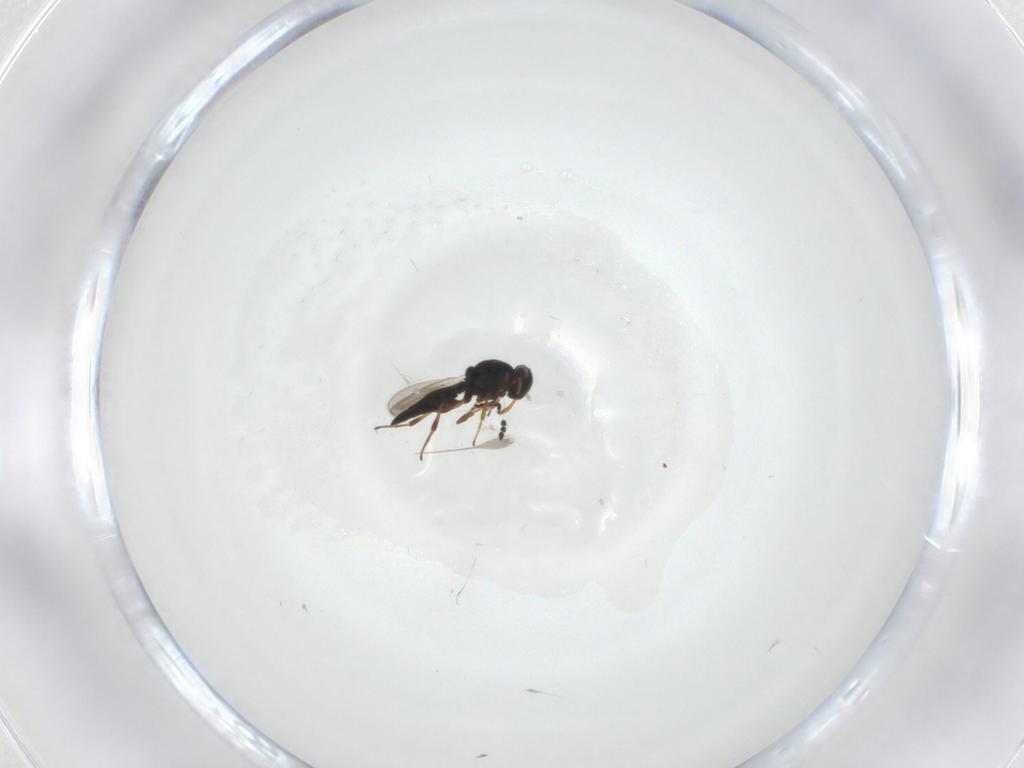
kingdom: Animalia
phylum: Arthropoda
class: Insecta
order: Hymenoptera
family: Platygastridae
